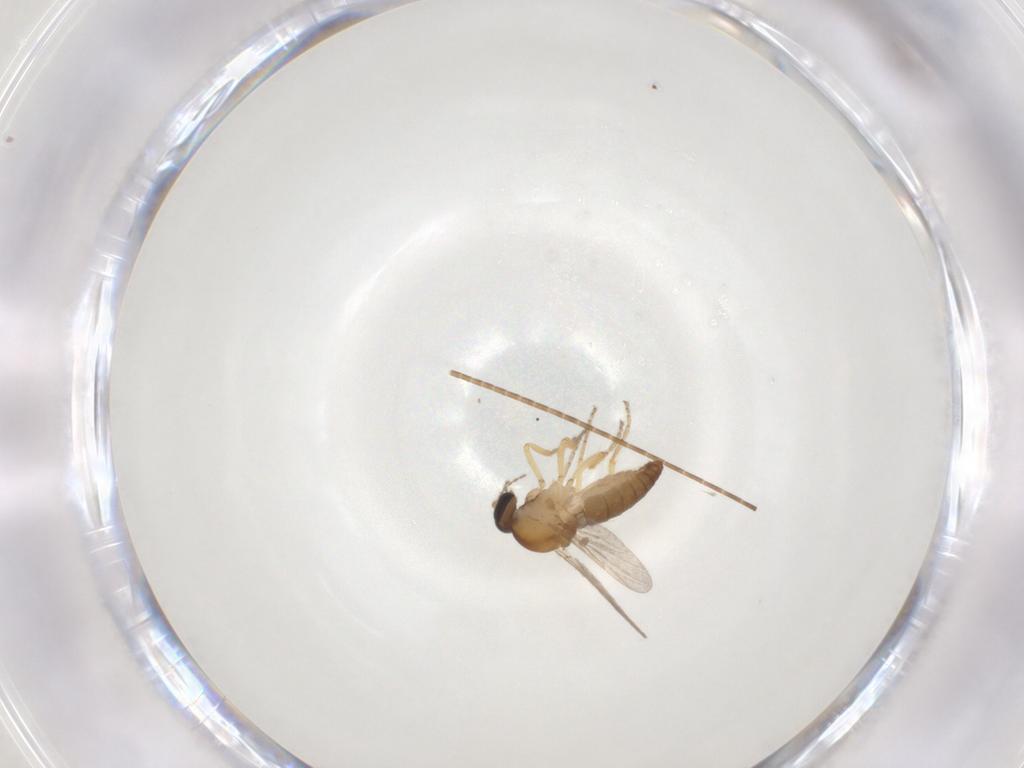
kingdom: Animalia
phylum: Arthropoda
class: Insecta
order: Diptera
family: Ceratopogonidae
